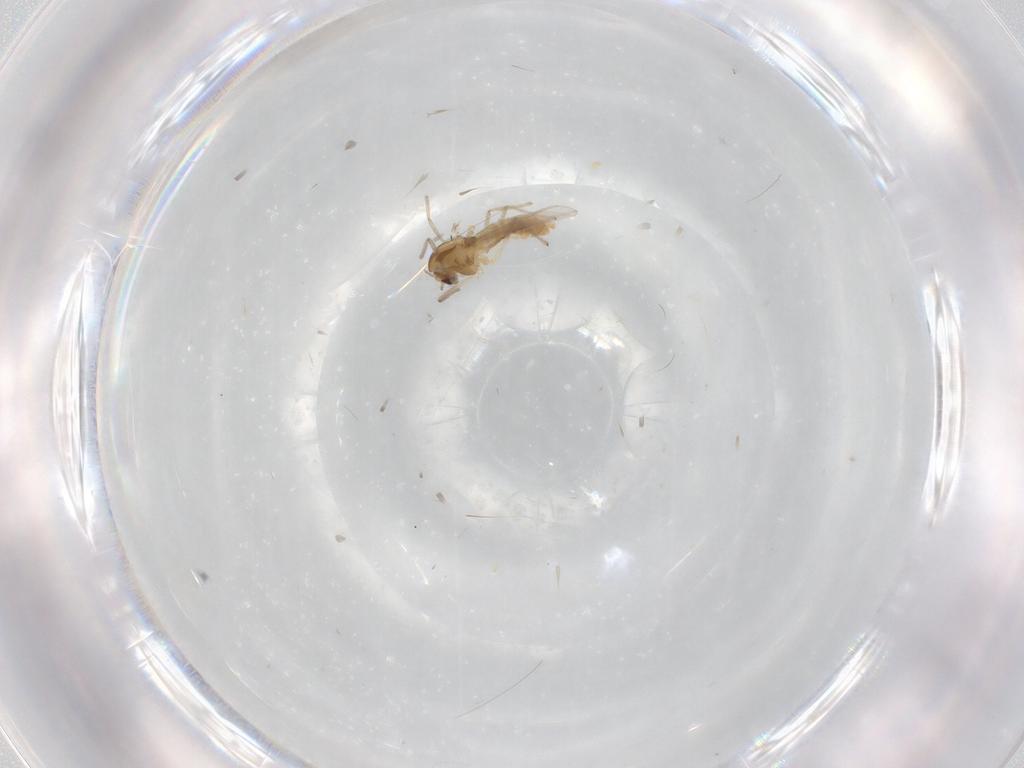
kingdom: Animalia
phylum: Arthropoda
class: Insecta
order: Diptera
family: Chironomidae
